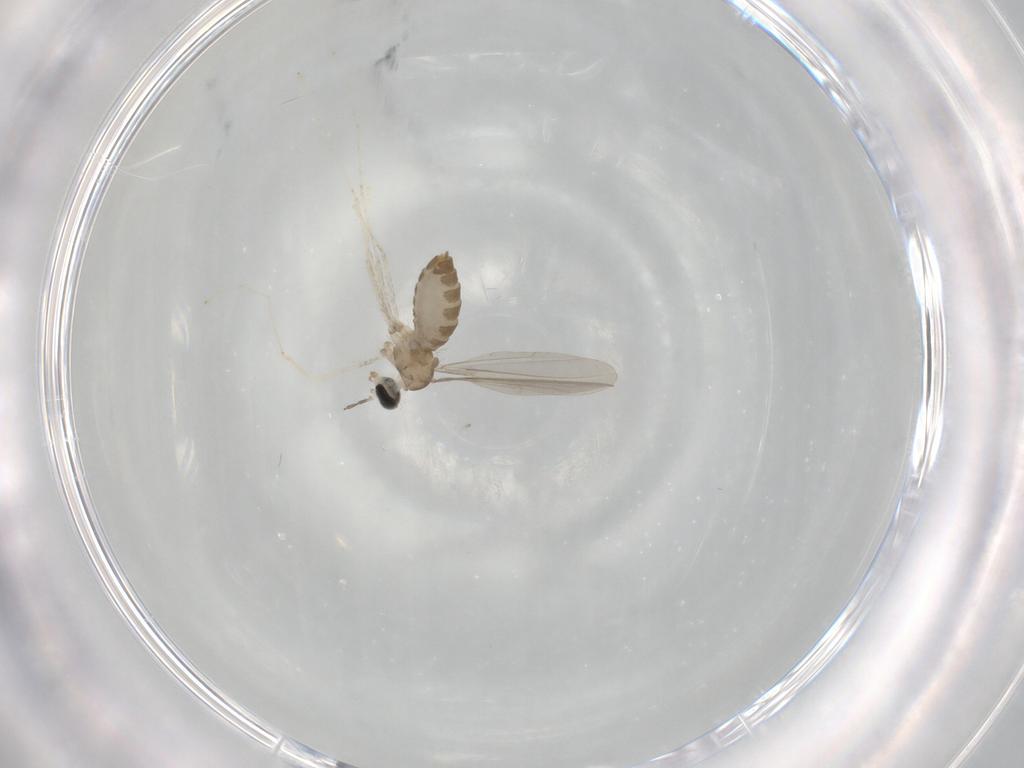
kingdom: Animalia
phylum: Arthropoda
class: Insecta
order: Diptera
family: Cecidomyiidae
